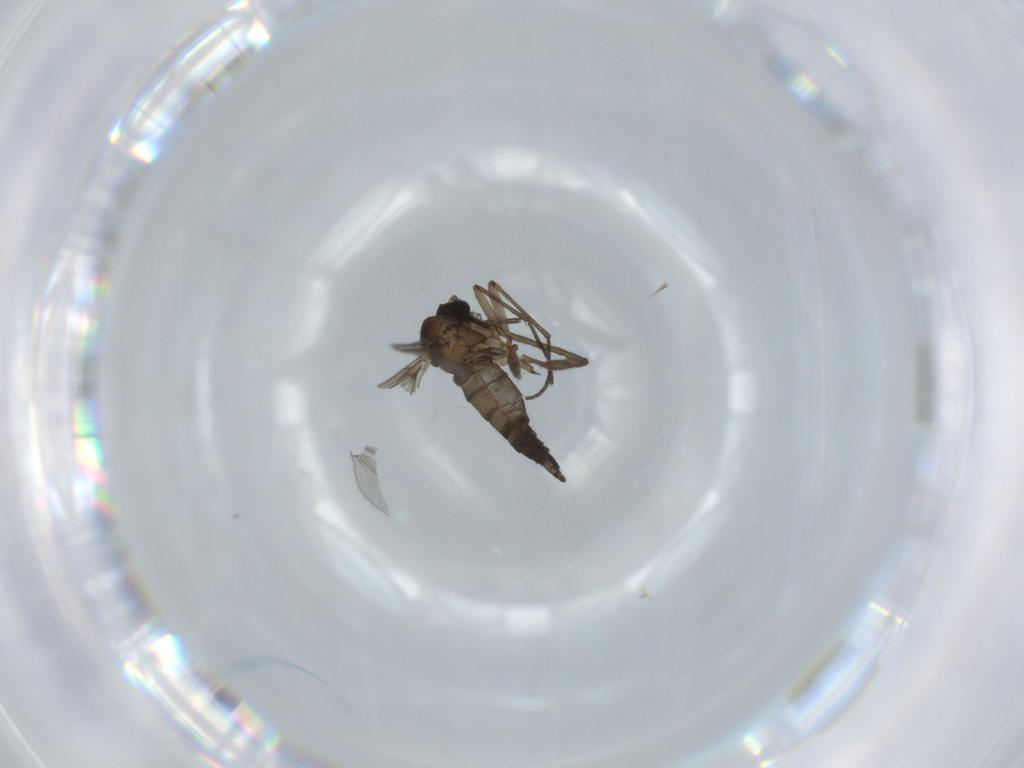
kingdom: Animalia
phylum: Arthropoda
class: Insecta
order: Diptera
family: Sciaridae
